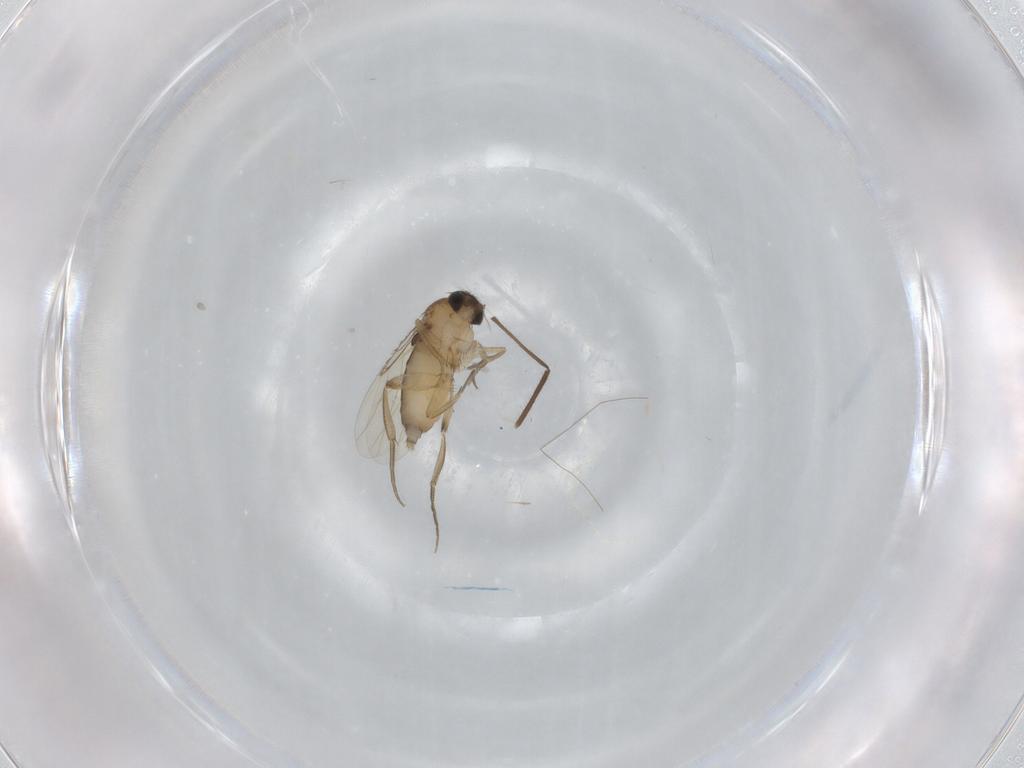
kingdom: Animalia
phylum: Arthropoda
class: Insecta
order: Diptera
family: Phoridae
